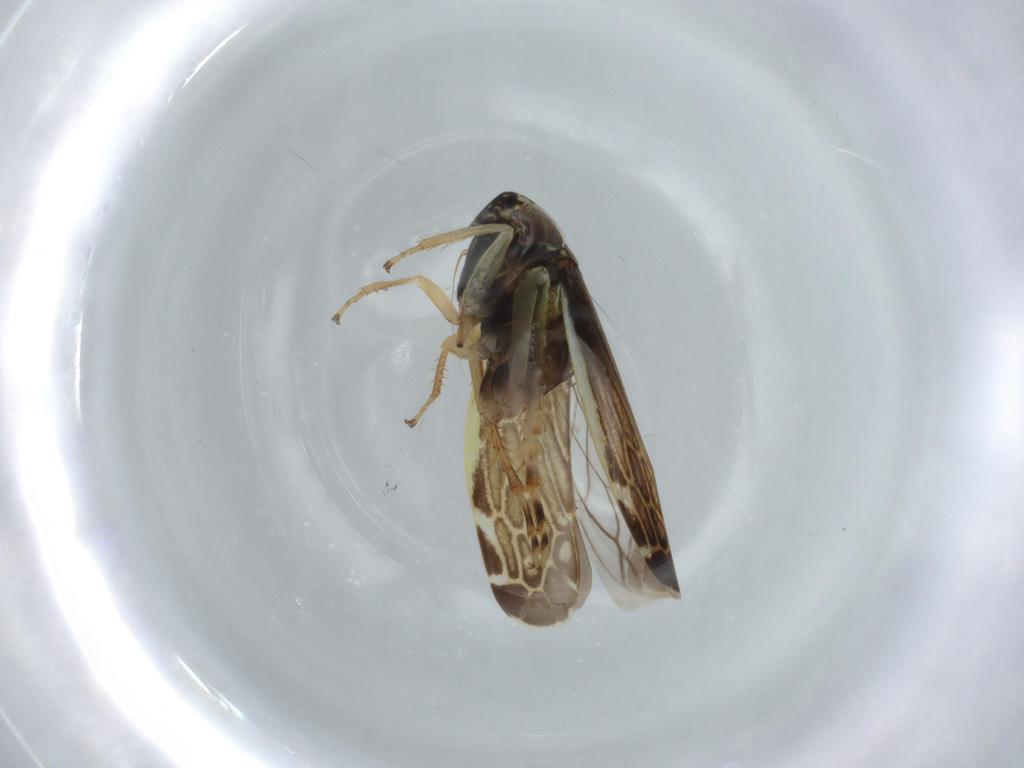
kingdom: Animalia
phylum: Arthropoda
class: Insecta
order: Hemiptera
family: Cicadellidae
